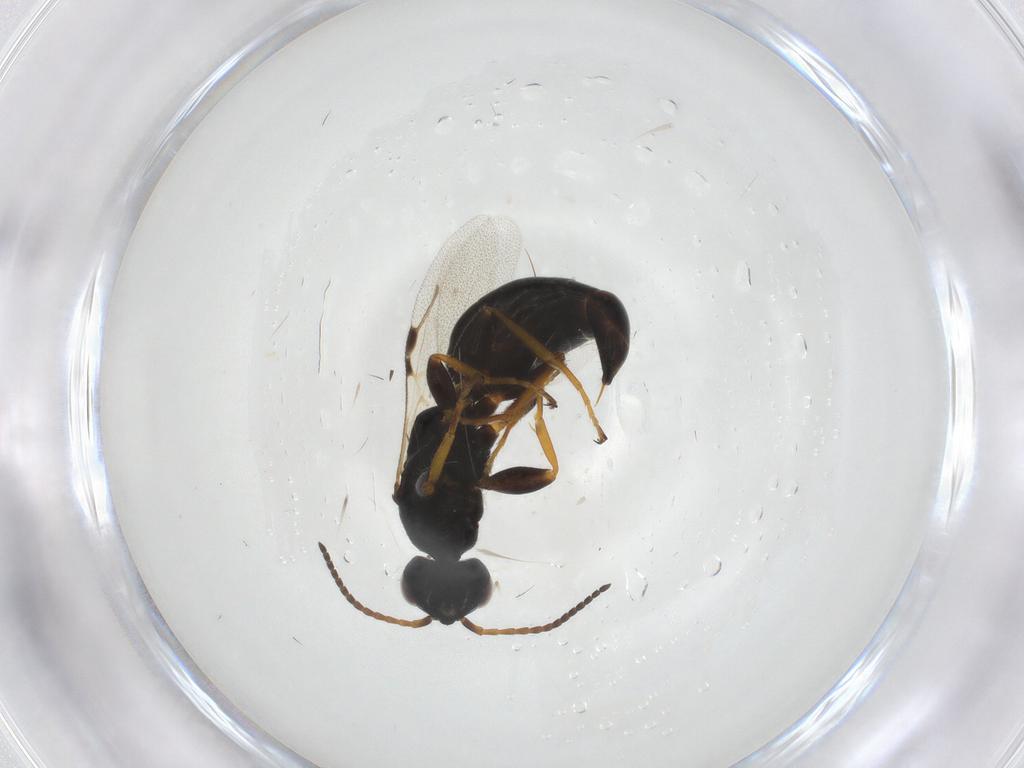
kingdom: Animalia
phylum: Arthropoda
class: Insecta
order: Hymenoptera
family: Bethylidae
